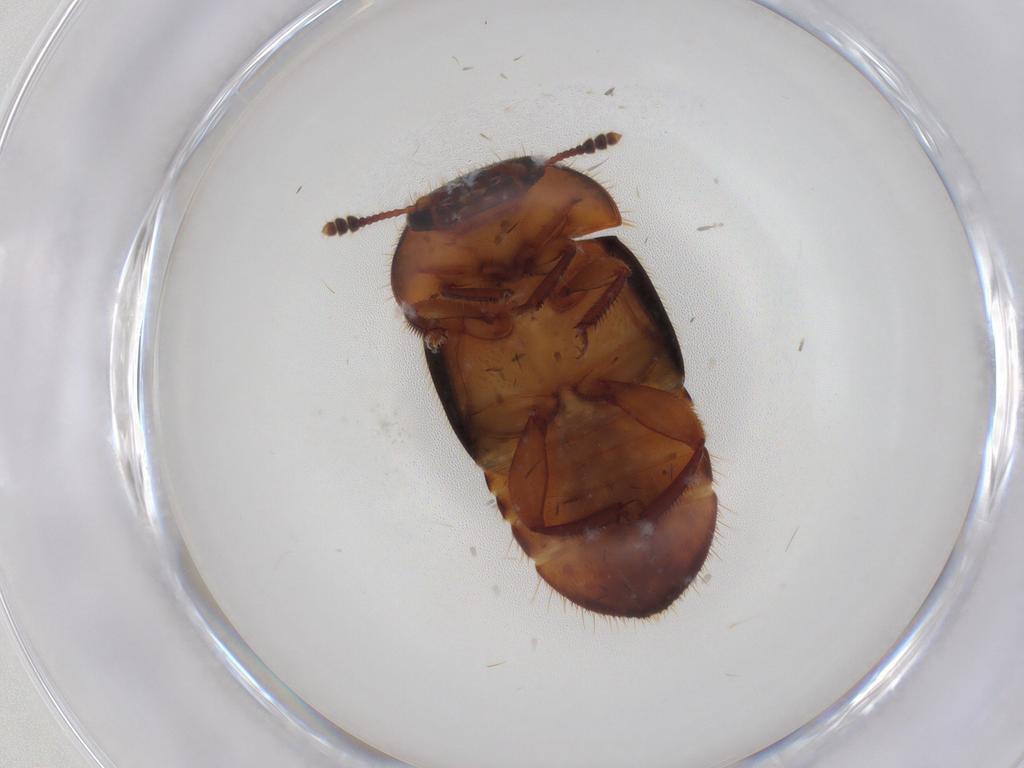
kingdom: Animalia
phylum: Arthropoda
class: Insecta
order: Coleoptera
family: Nitidulidae
